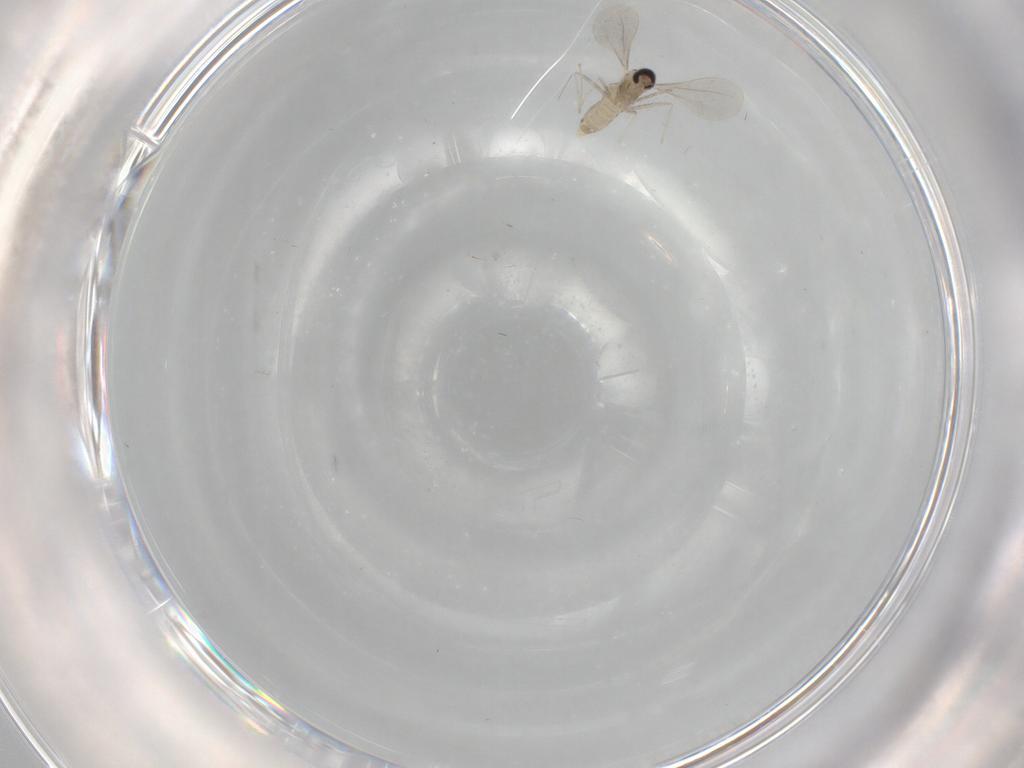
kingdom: Animalia
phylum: Arthropoda
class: Insecta
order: Diptera
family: Cecidomyiidae
